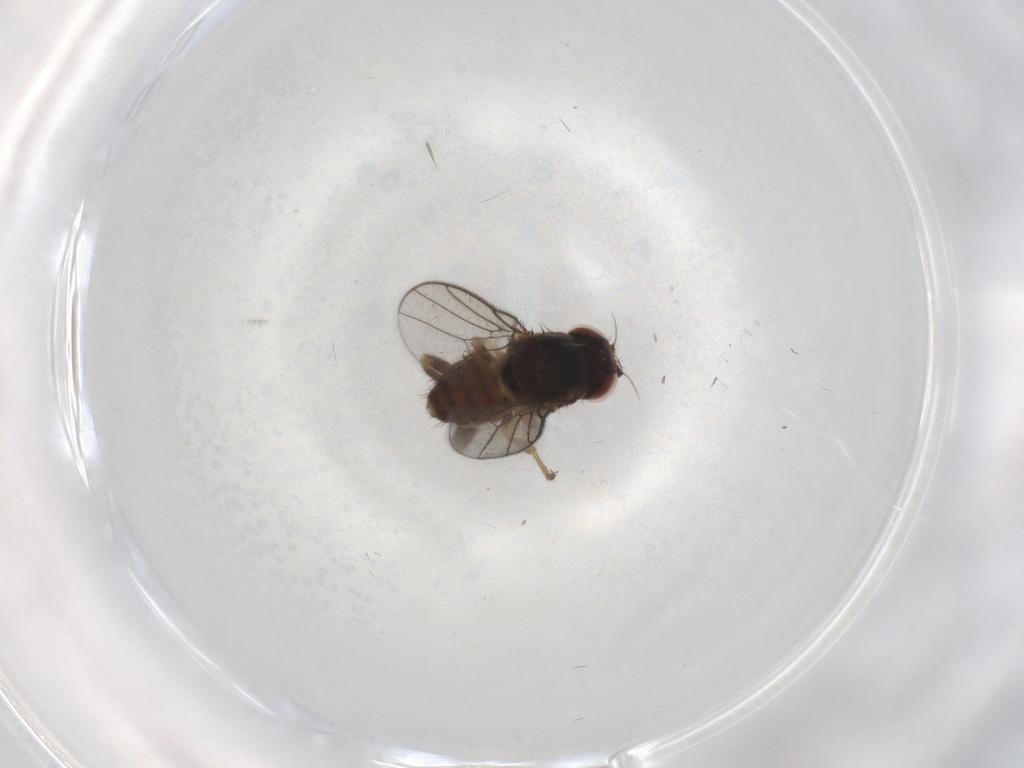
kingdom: Animalia
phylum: Arthropoda
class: Insecta
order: Diptera
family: Chloropidae
